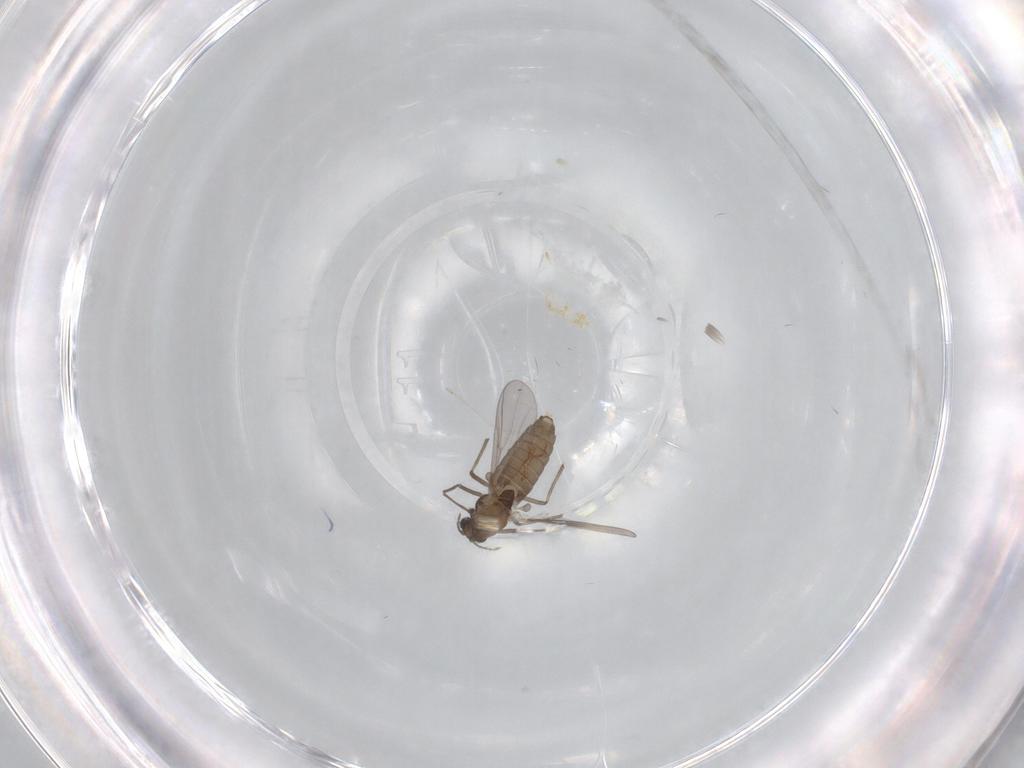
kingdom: Animalia
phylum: Arthropoda
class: Insecta
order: Diptera
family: Chironomidae
